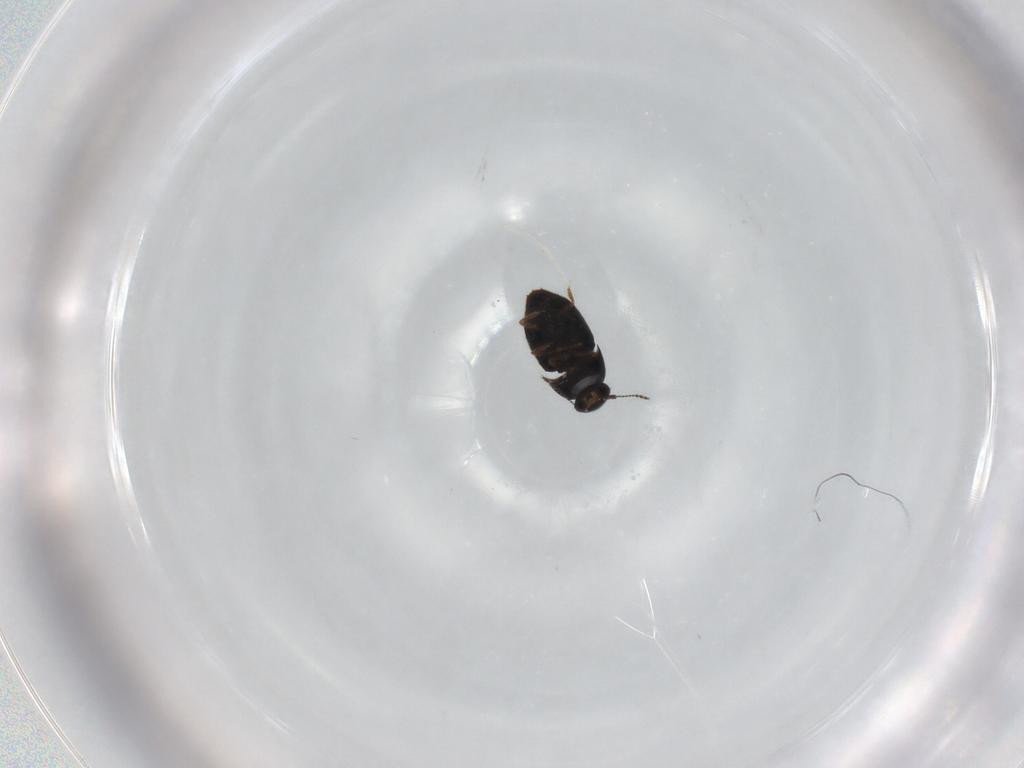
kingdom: Animalia
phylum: Arthropoda
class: Insecta
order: Coleoptera
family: Ptiliidae
